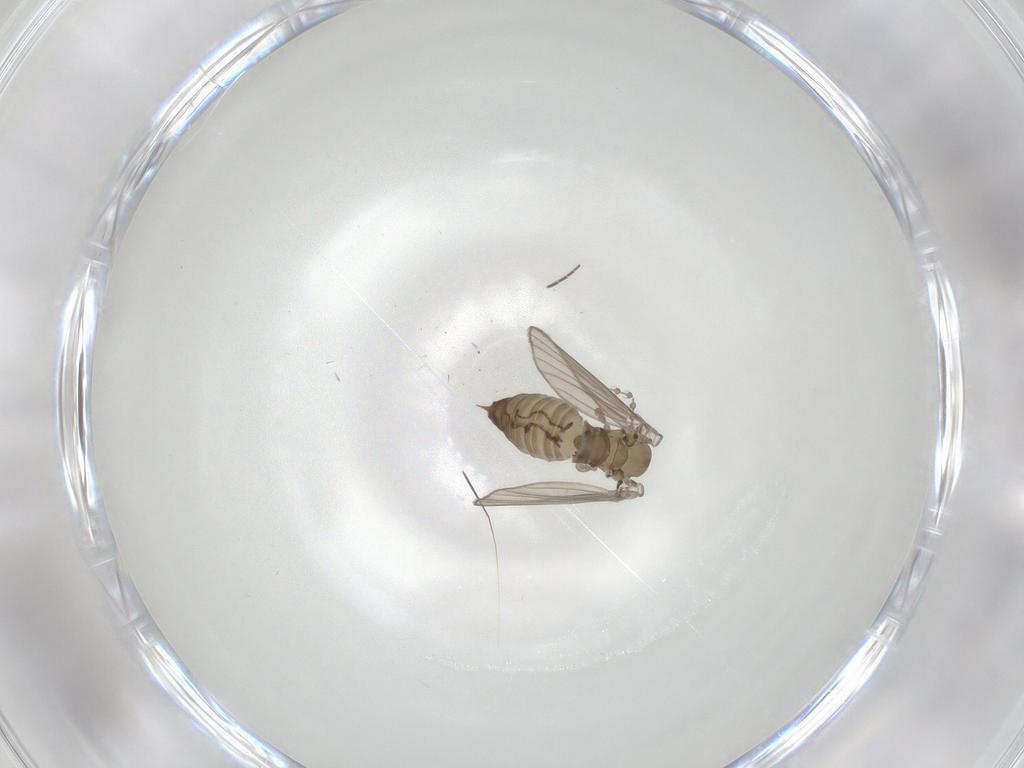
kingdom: Animalia
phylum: Arthropoda
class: Insecta
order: Diptera
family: Psychodidae
